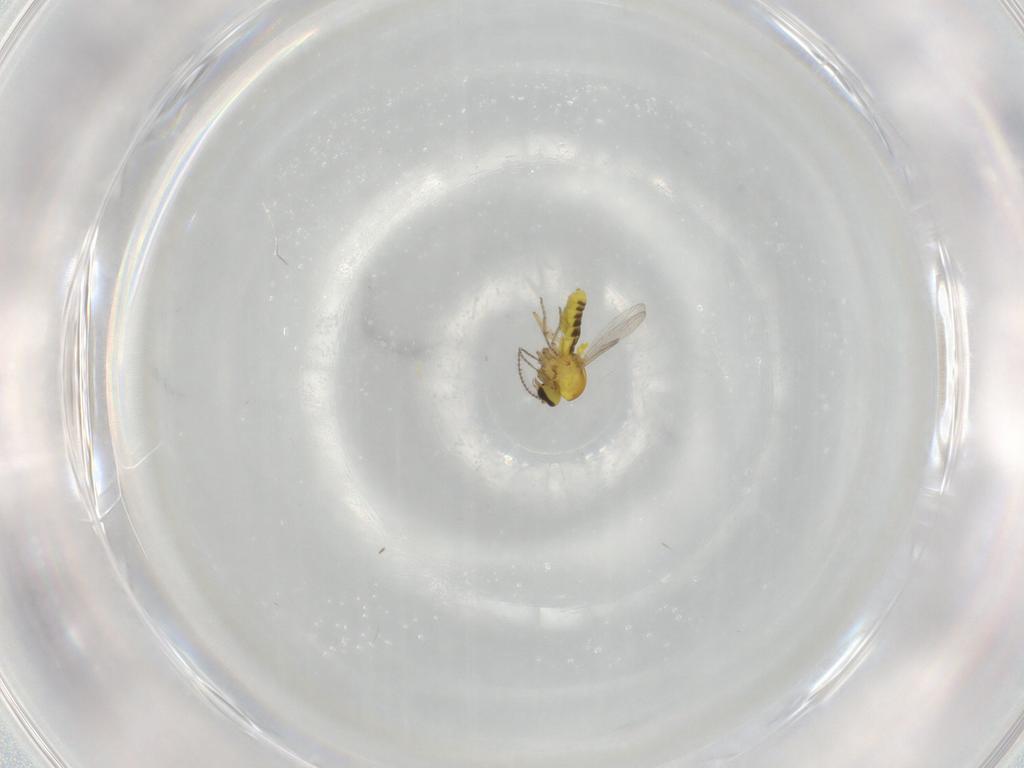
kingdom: Animalia
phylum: Arthropoda
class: Insecta
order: Diptera
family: Ceratopogonidae
